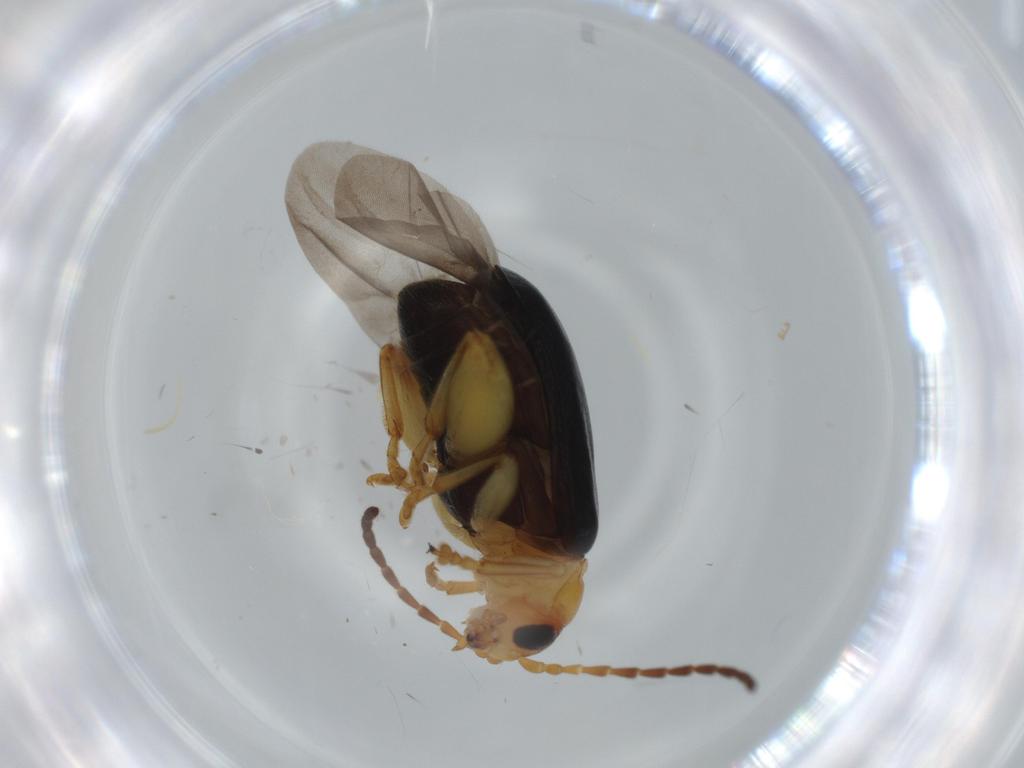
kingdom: Animalia
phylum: Arthropoda
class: Insecta
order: Coleoptera
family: Chrysomelidae
